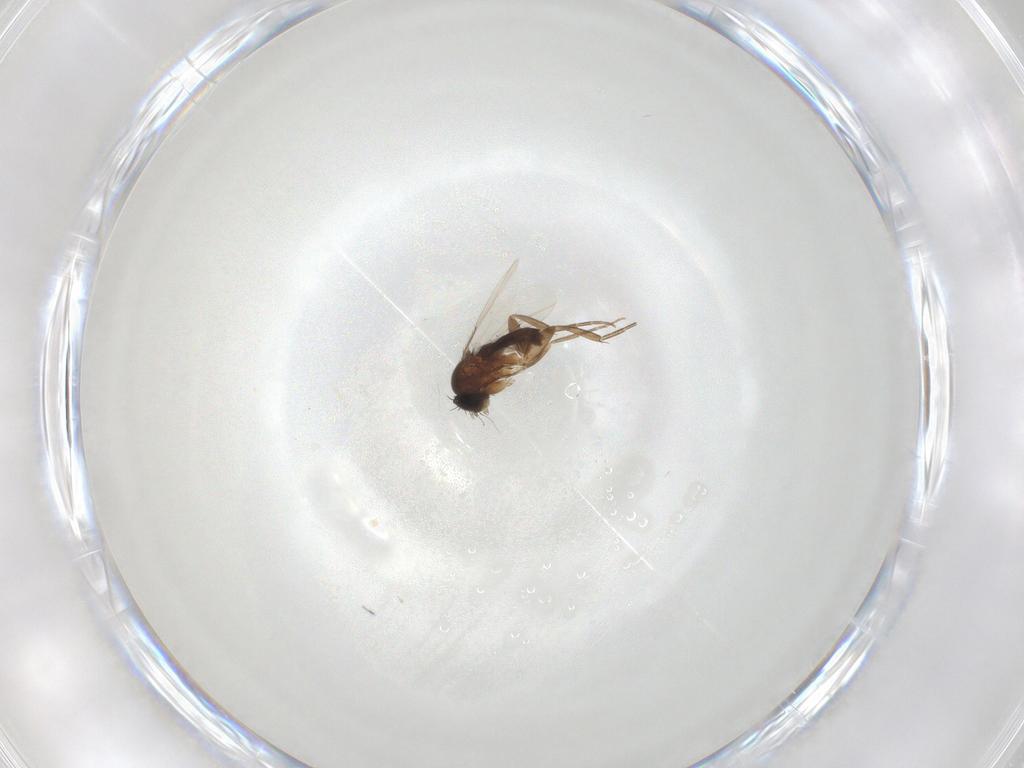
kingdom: Animalia
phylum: Arthropoda
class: Insecta
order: Diptera
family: Phoridae
